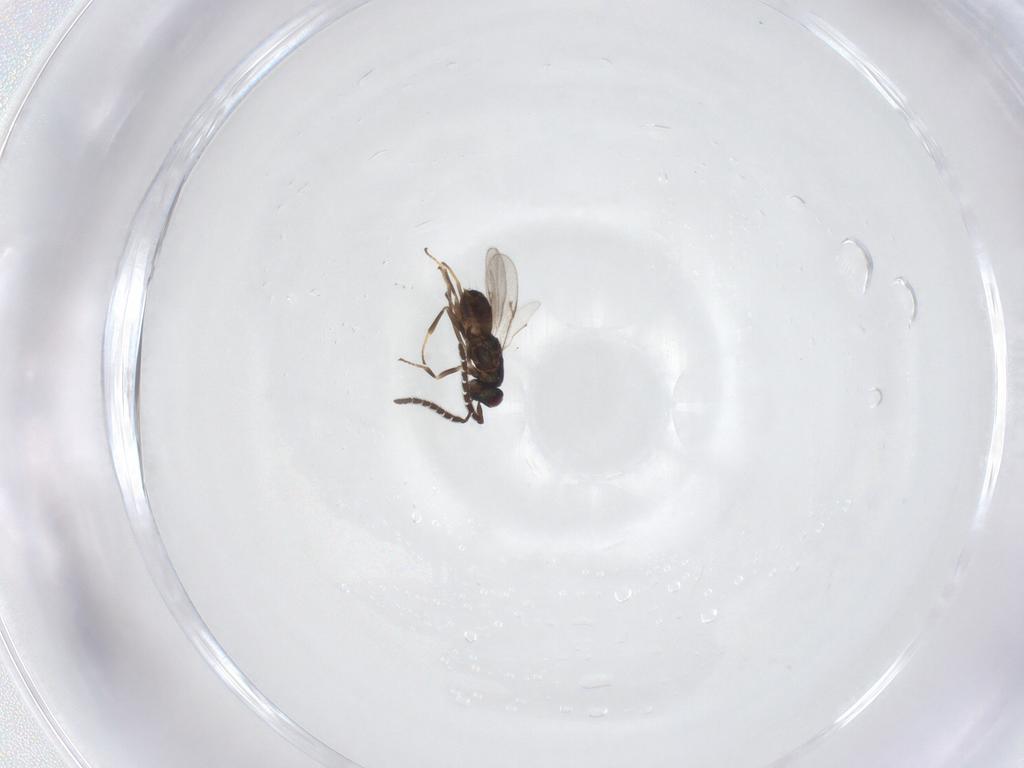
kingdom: Animalia
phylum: Arthropoda
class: Insecta
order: Hymenoptera
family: Encyrtidae
